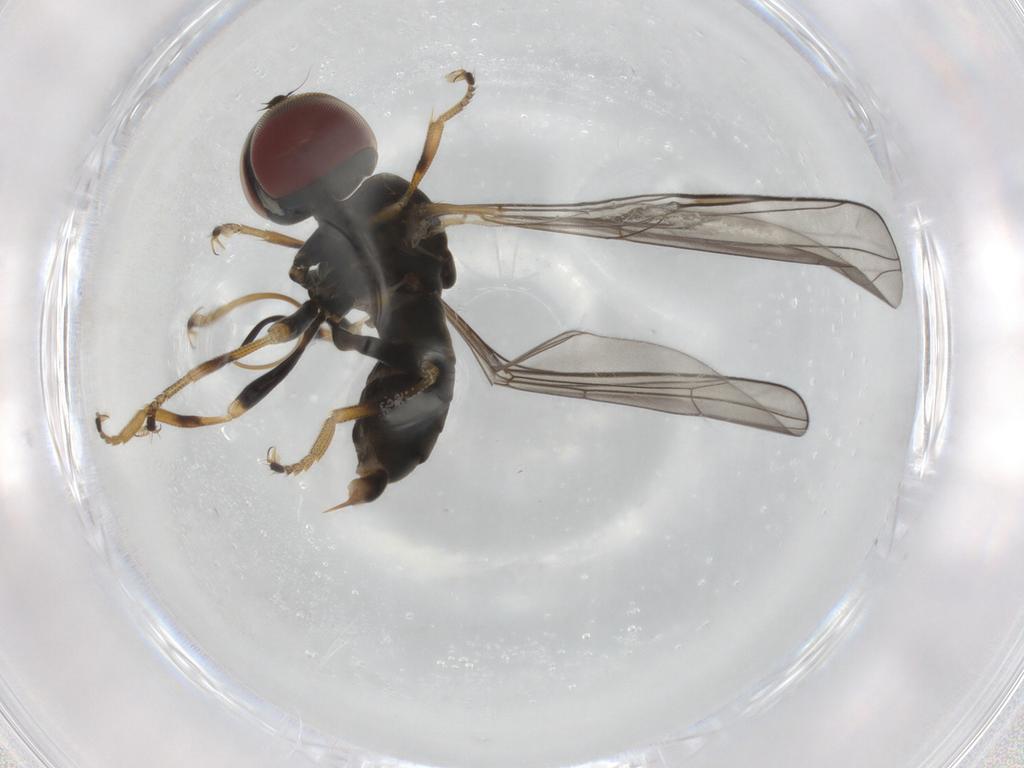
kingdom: Animalia
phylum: Arthropoda
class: Insecta
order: Diptera
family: Pipunculidae
